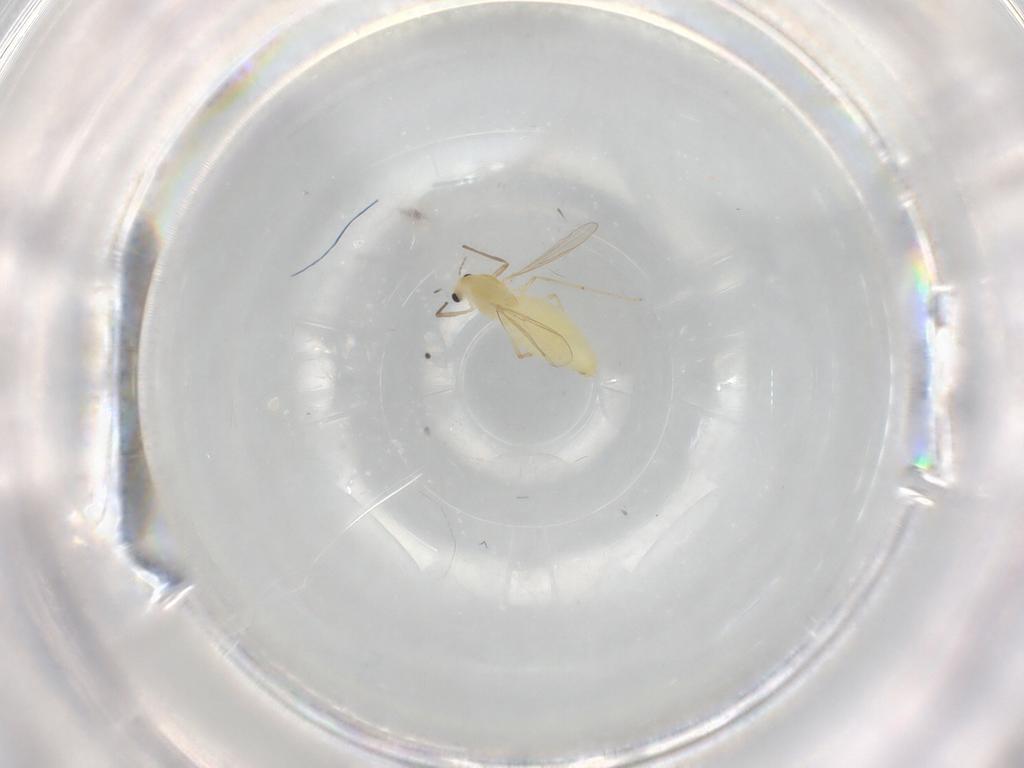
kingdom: Animalia
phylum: Arthropoda
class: Insecta
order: Diptera
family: Chironomidae
